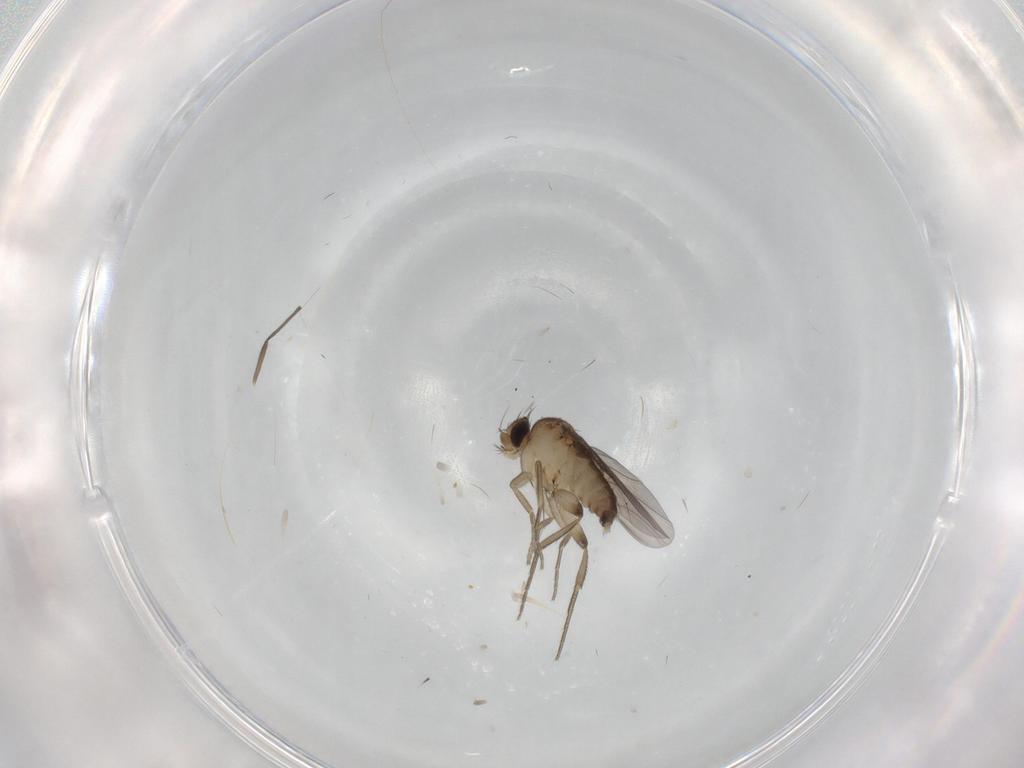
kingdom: Animalia
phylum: Arthropoda
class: Insecta
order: Diptera
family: Phoridae
